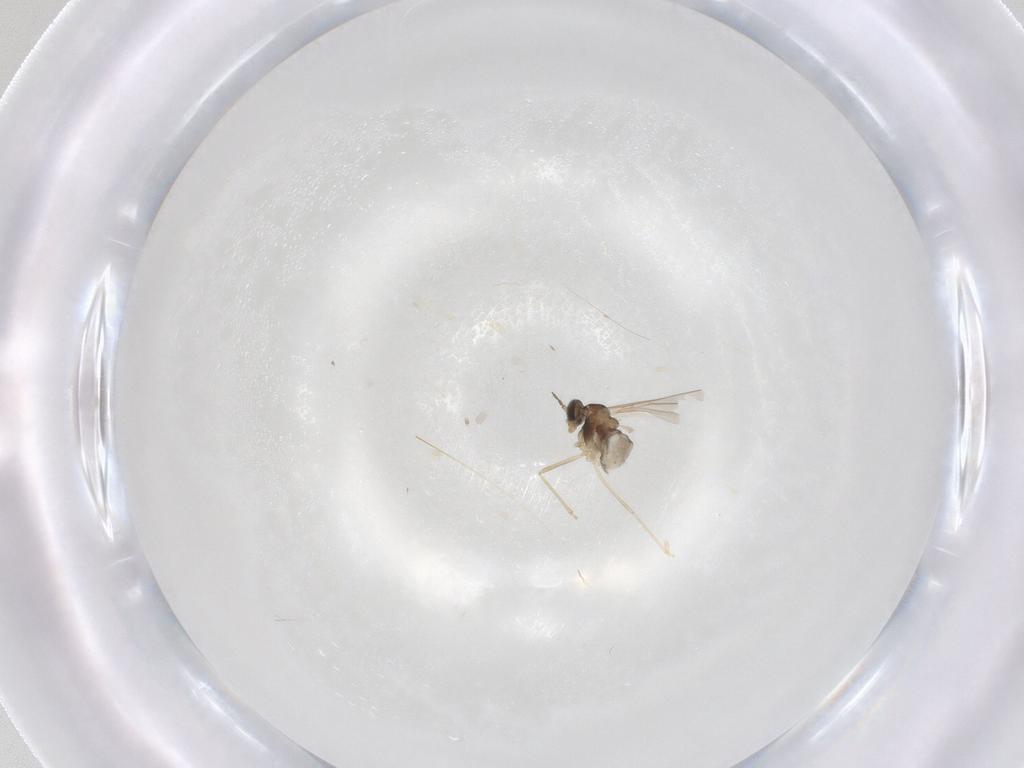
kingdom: Animalia
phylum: Arthropoda
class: Insecta
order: Diptera
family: Cecidomyiidae
